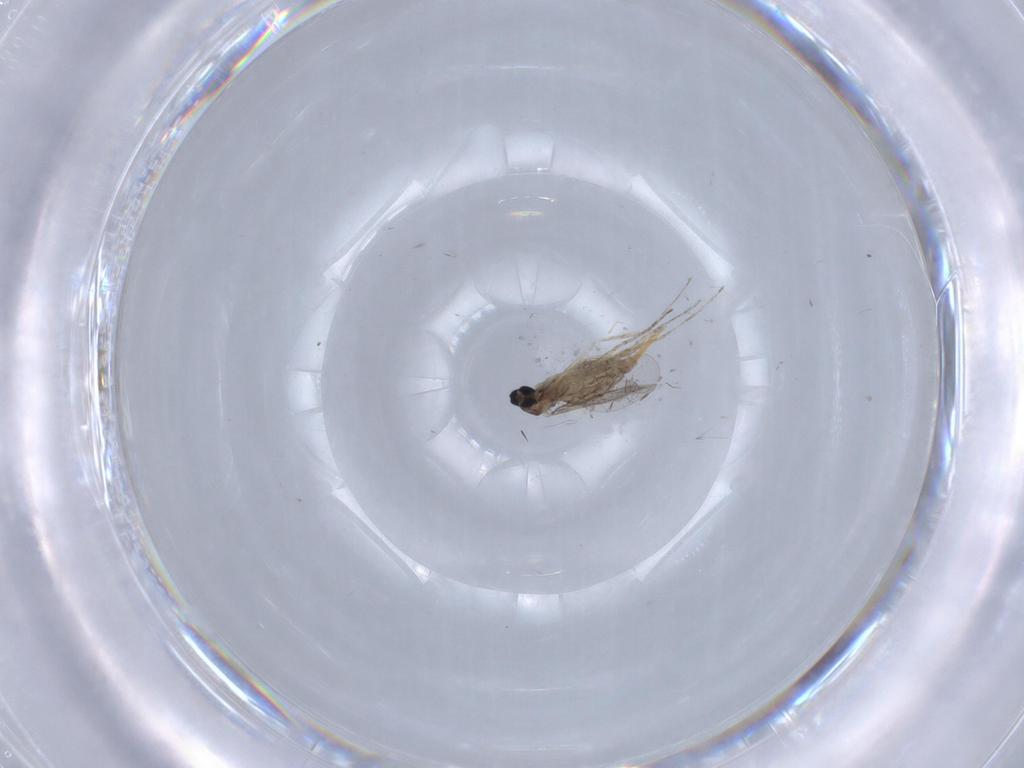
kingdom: Animalia
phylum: Arthropoda
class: Insecta
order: Diptera
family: Cecidomyiidae
